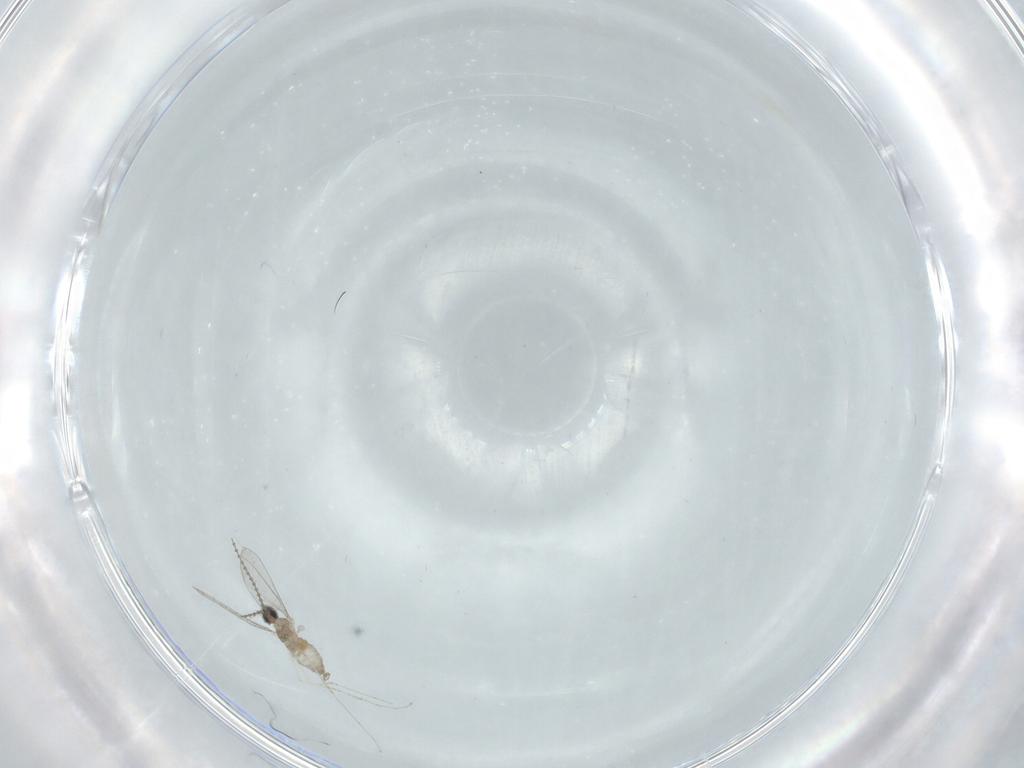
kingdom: Animalia
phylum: Arthropoda
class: Insecta
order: Diptera
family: Cecidomyiidae
